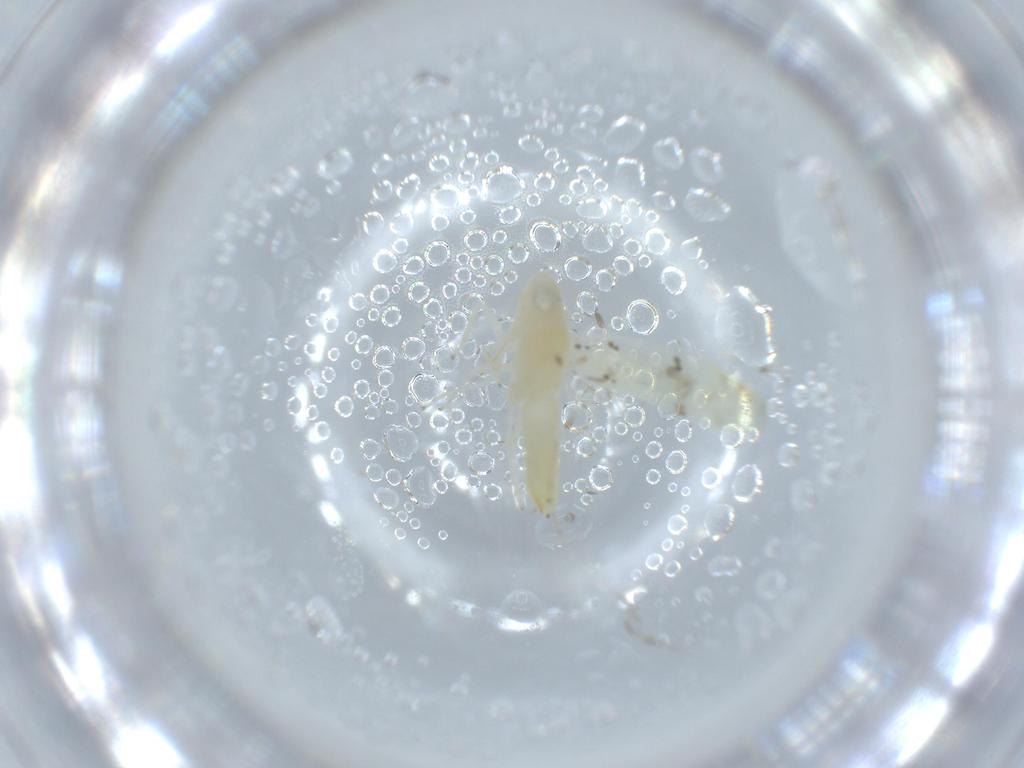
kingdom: Animalia
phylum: Arthropoda
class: Insecta
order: Hemiptera
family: Cicadellidae
